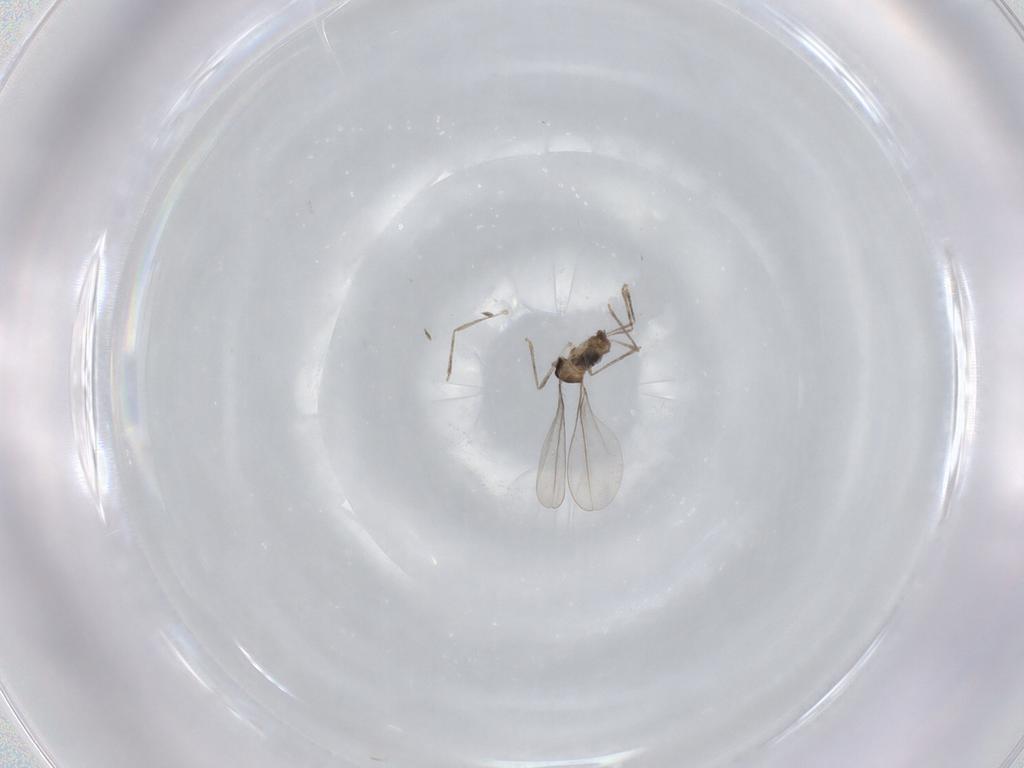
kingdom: Animalia
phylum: Arthropoda
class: Insecta
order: Diptera
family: Cecidomyiidae
